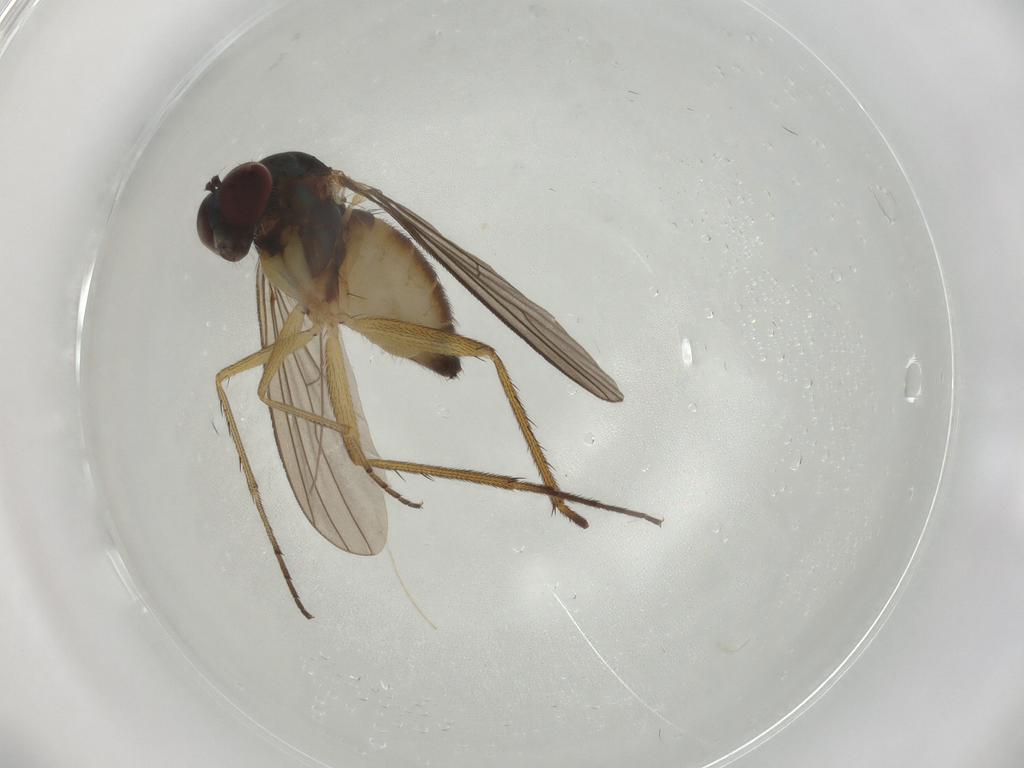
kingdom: Animalia
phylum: Arthropoda
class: Insecta
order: Diptera
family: Dolichopodidae
